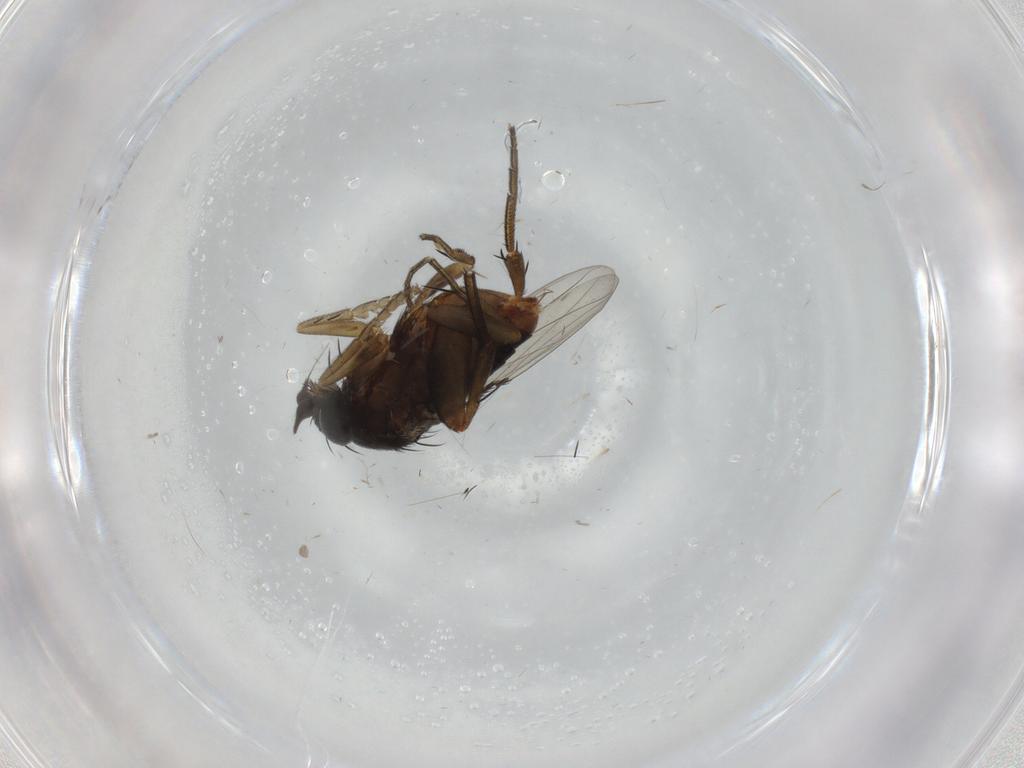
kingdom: Animalia
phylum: Arthropoda
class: Insecta
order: Diptera
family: Phoridae
